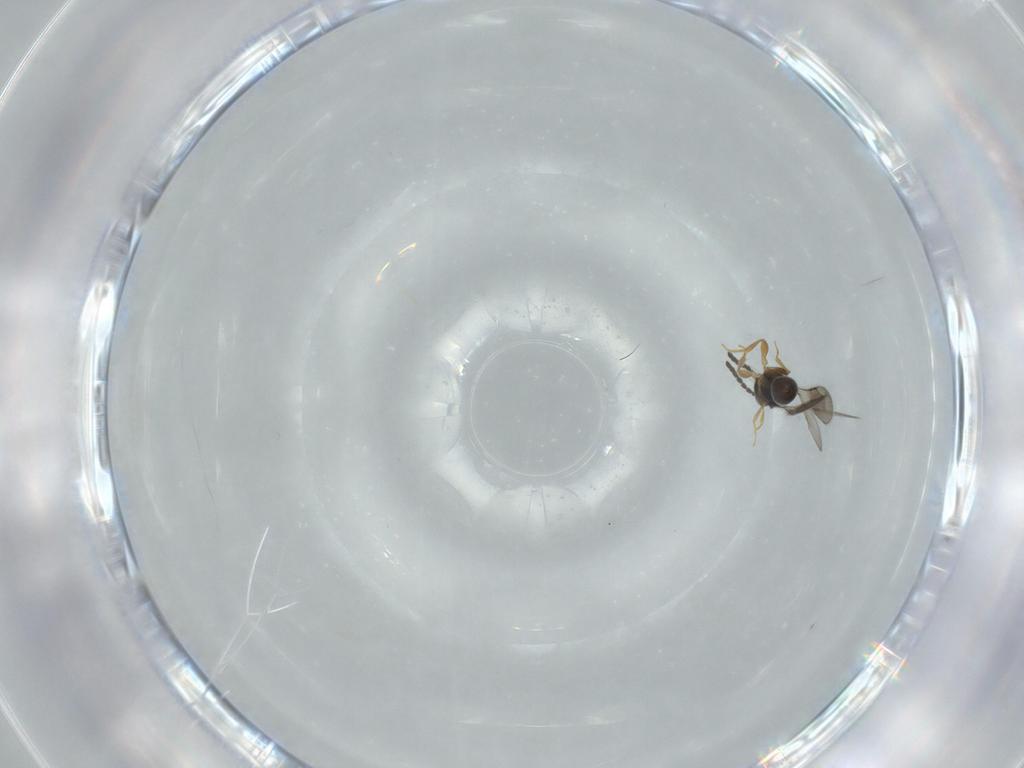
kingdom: Animalia
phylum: Arthropoda
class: Insecta
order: Hymenoptera
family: Ceraphronidae
